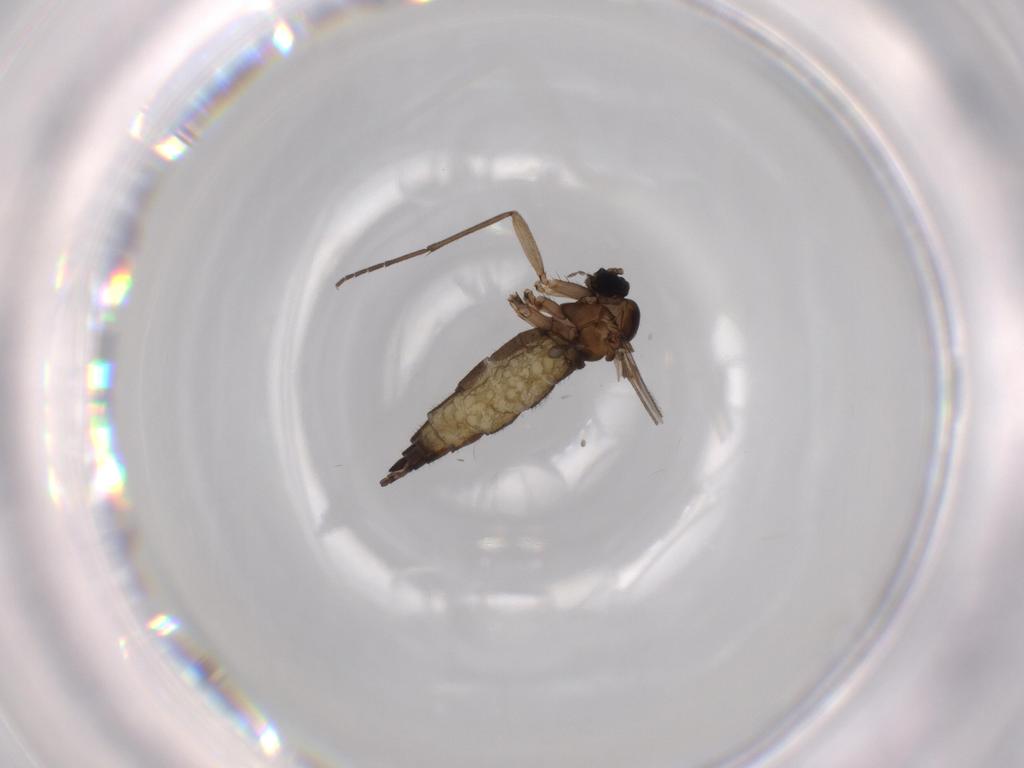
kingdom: Animalia
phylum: Arthropoda
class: Insecta
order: Diptera
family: Sciaridae
